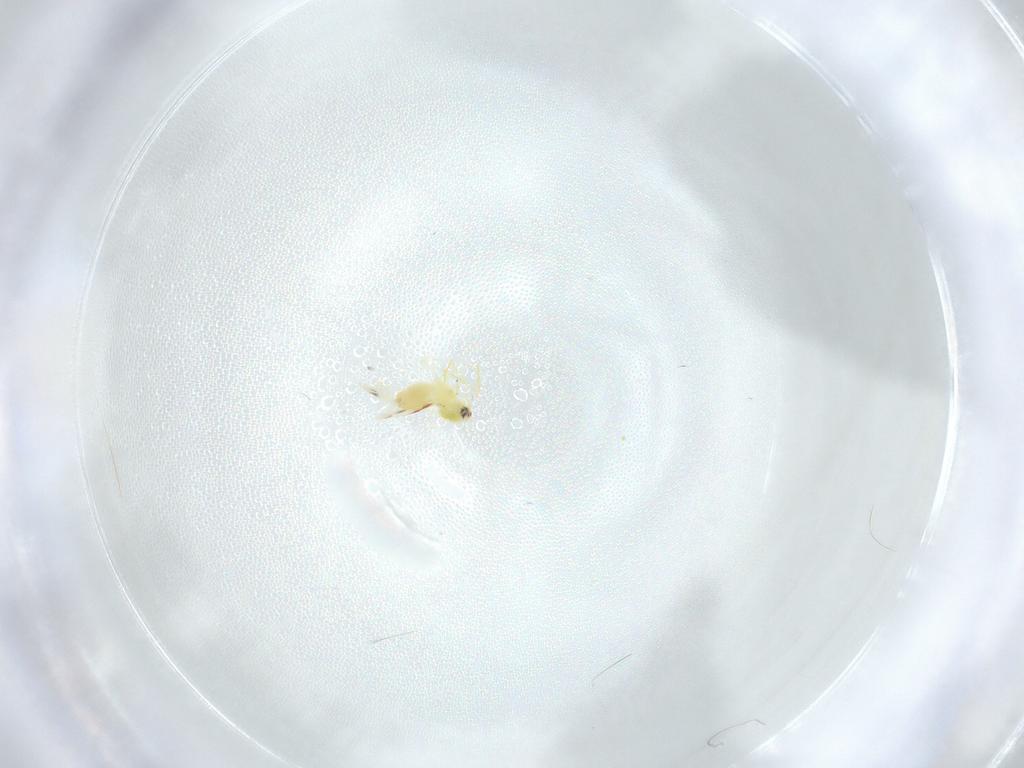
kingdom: Animalia
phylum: Arthropoda
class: Insecta
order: Hemiptera
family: Aleyrodidae
